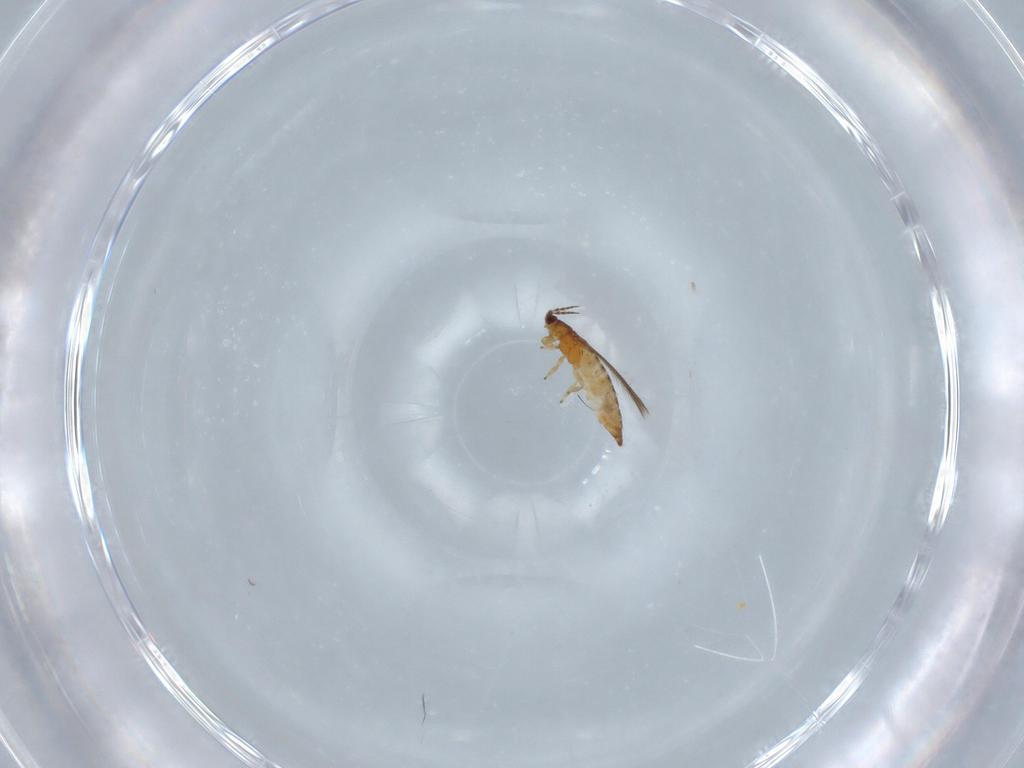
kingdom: Animalia
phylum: Arthropoda
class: Insecta
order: Thysanoptera
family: Heterothripidae
